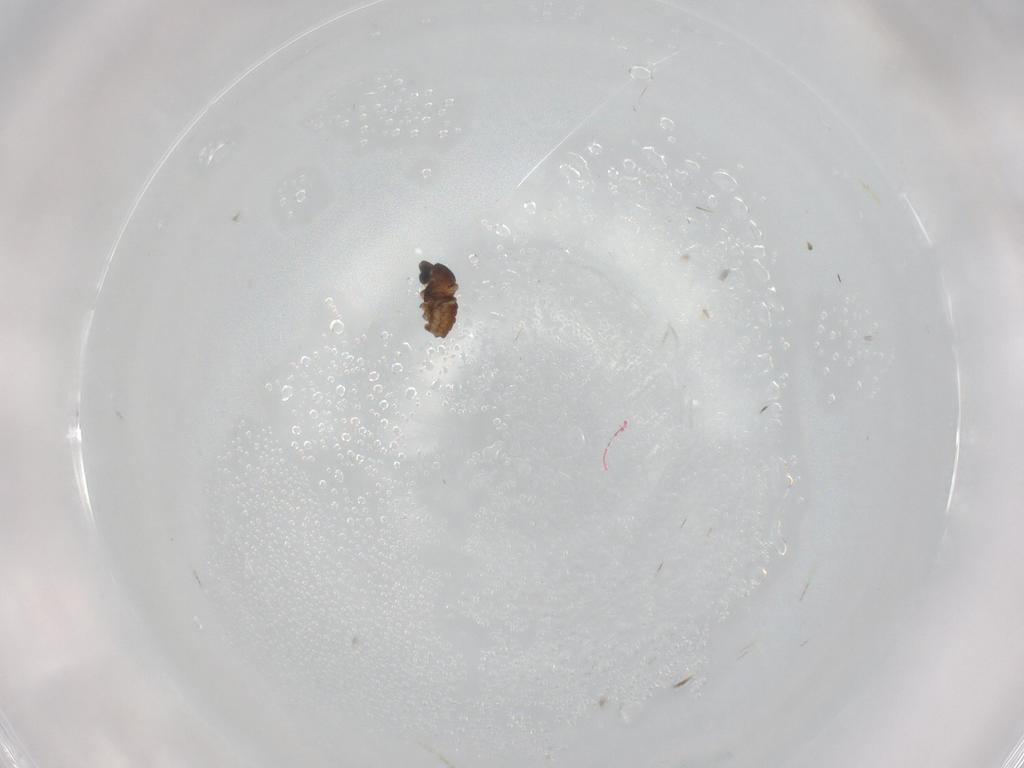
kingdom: Animalia
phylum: Arthropoda
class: Insecta
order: Diptera
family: Cecidomyiidae
